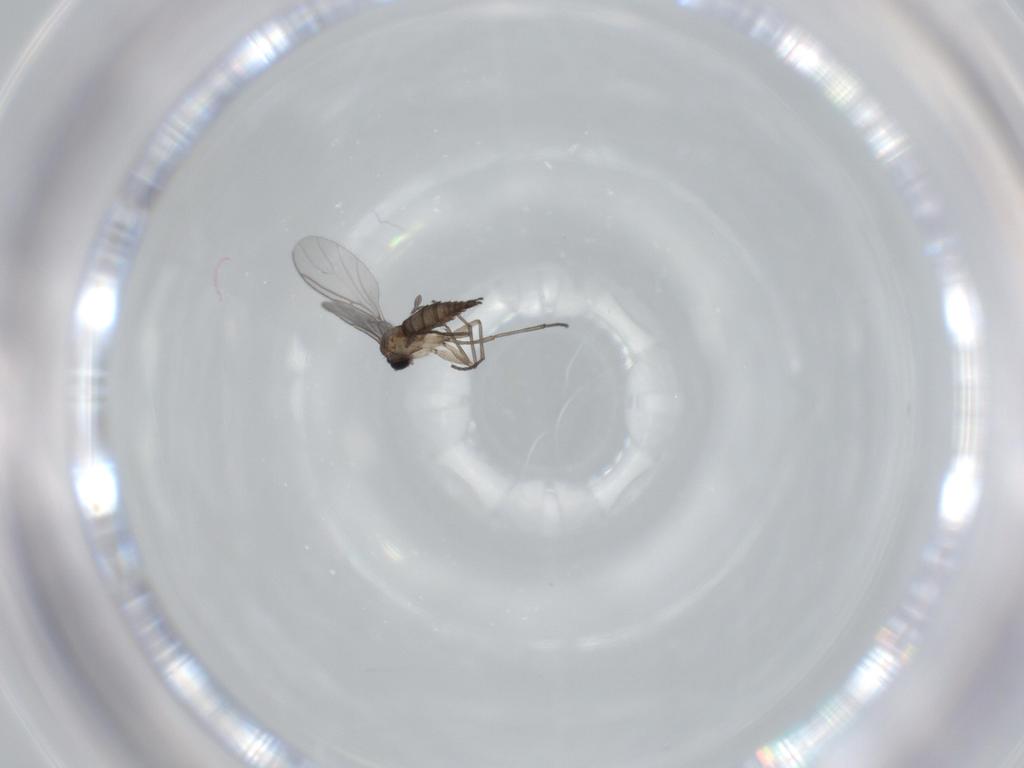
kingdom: Animalia
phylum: Arthropoda
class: Insecta
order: Diptera
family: Sciaridae
